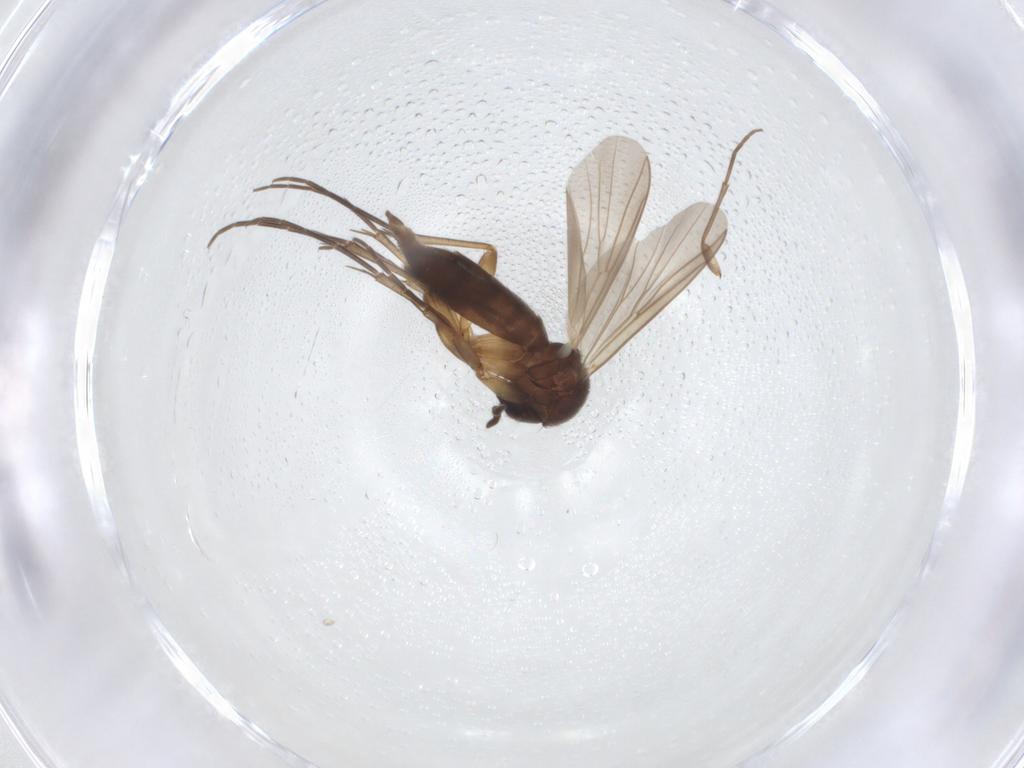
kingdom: Animalia
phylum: Arthropoda
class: Insecta
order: Diptera
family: Mycetophilidae
